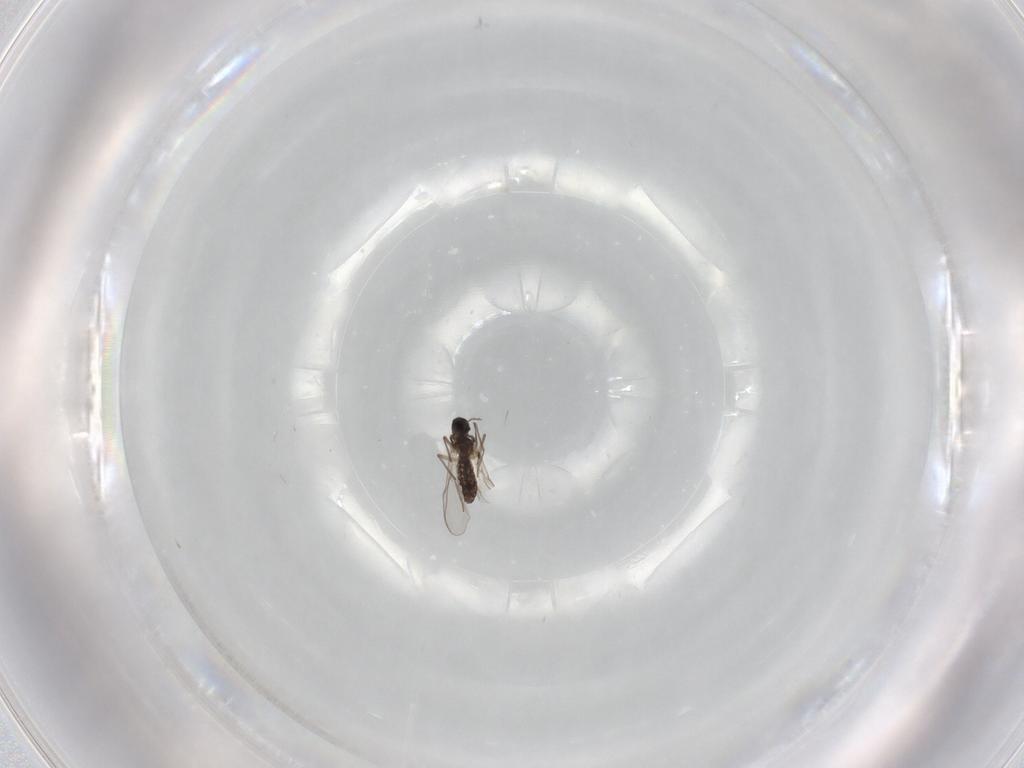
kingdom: Animalia
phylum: Arthropoda
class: Insecta
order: Diptera
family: Chironomidae
